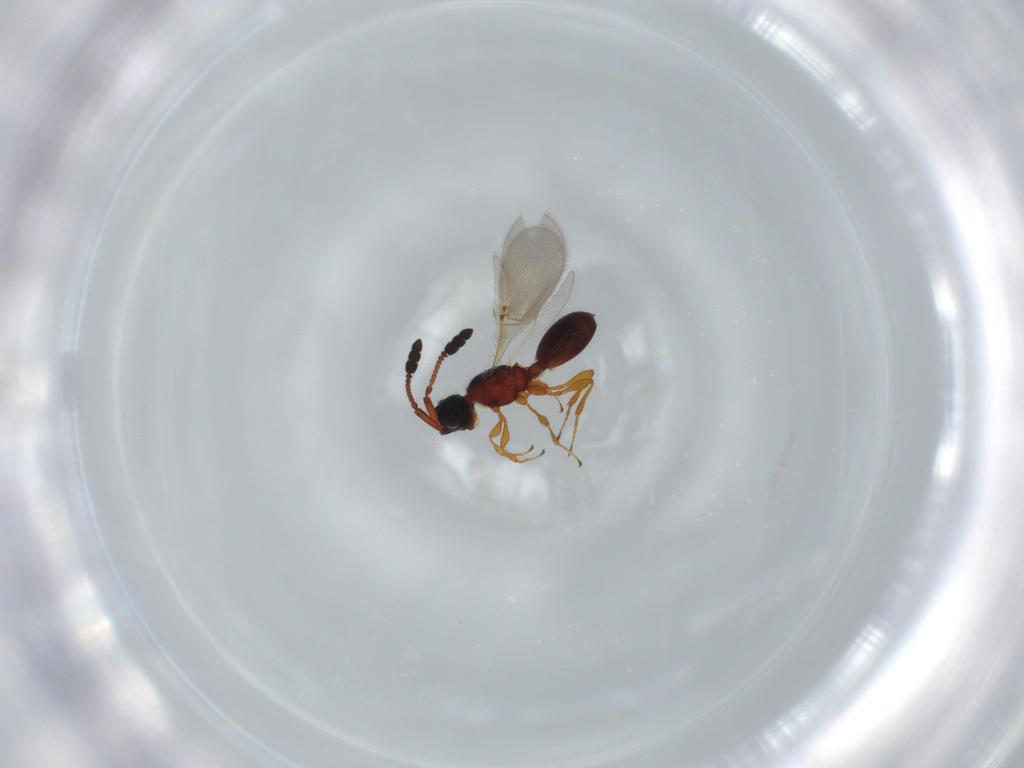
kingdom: Animalia
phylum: Arthropoda
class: Insecta
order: Hymenoptera
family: Diapriidae
